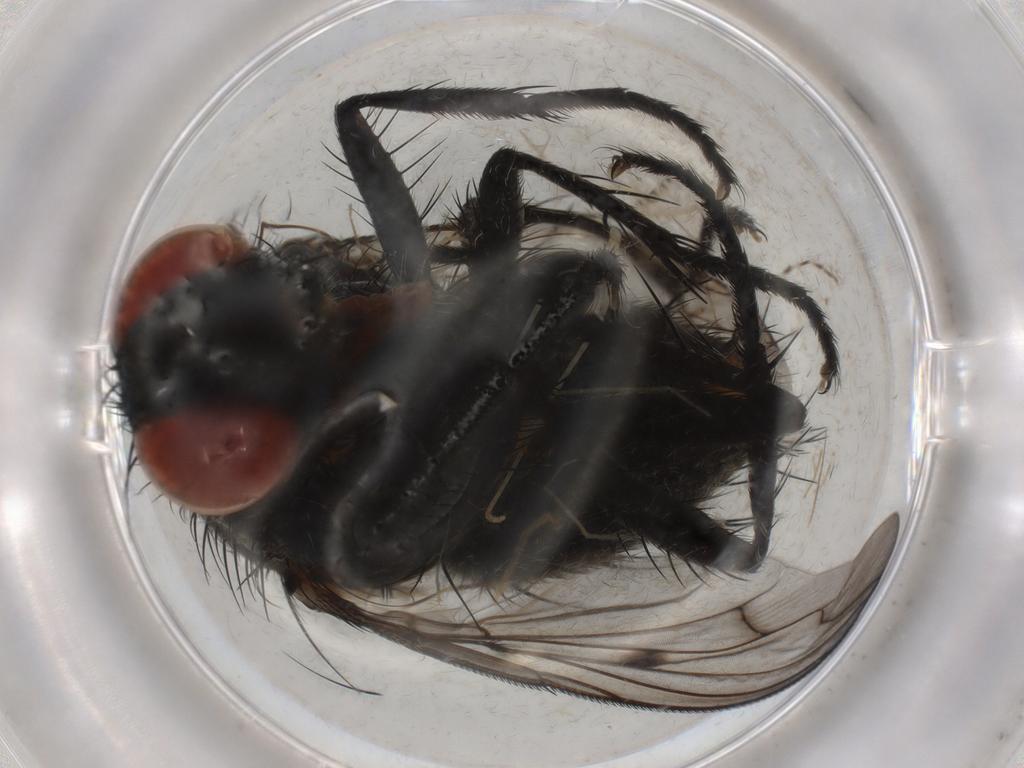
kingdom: Animalia
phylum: Arthropoda
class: Insecta
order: Diptera
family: Sarcophagidae
